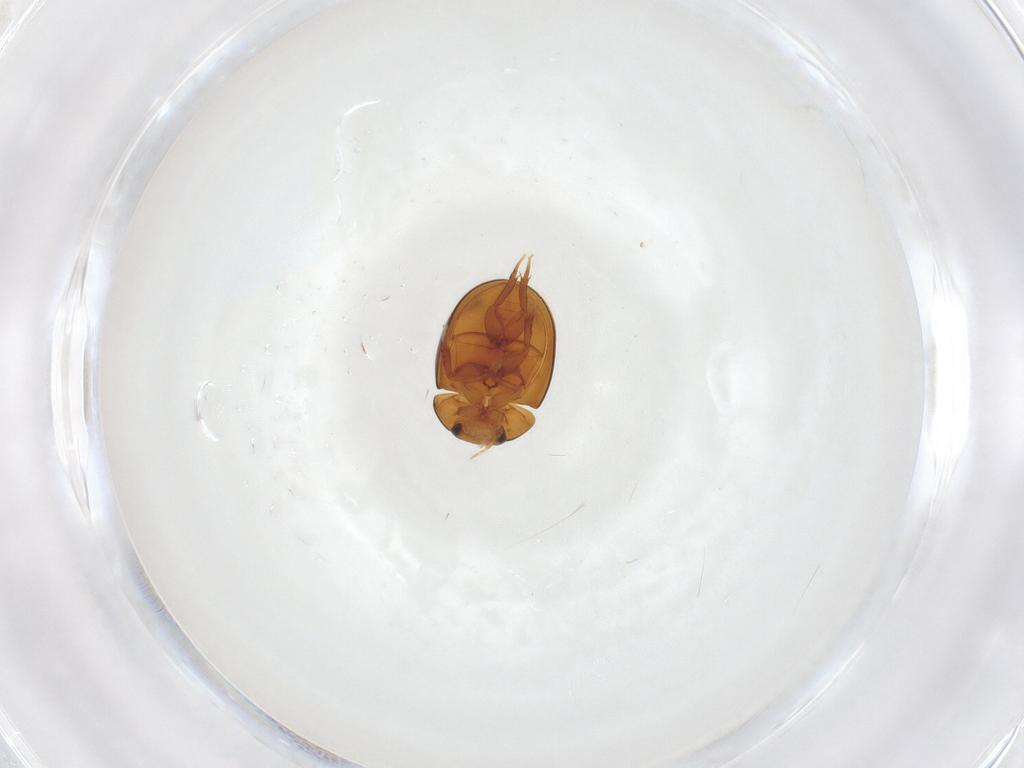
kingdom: Animalia
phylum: Arthropoda
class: Insecta
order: Coleoptera
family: Hydrophilidae
